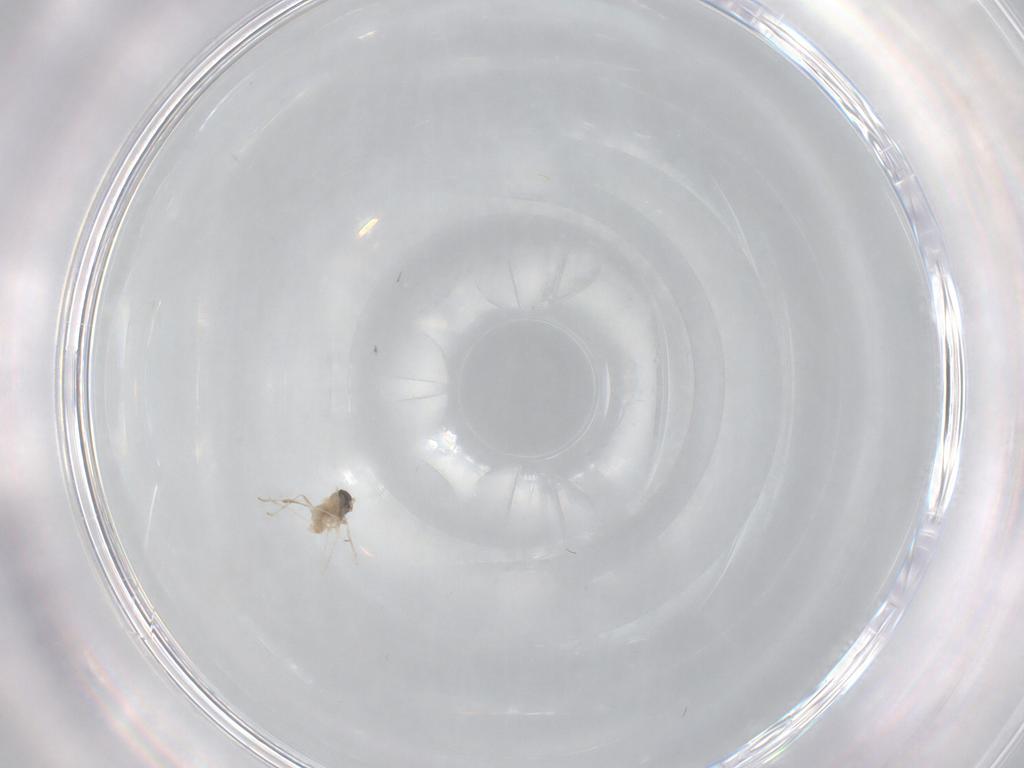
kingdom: Animalia
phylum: Arthropoda
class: Insecta
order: Diptera
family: Cecidomyiidae
